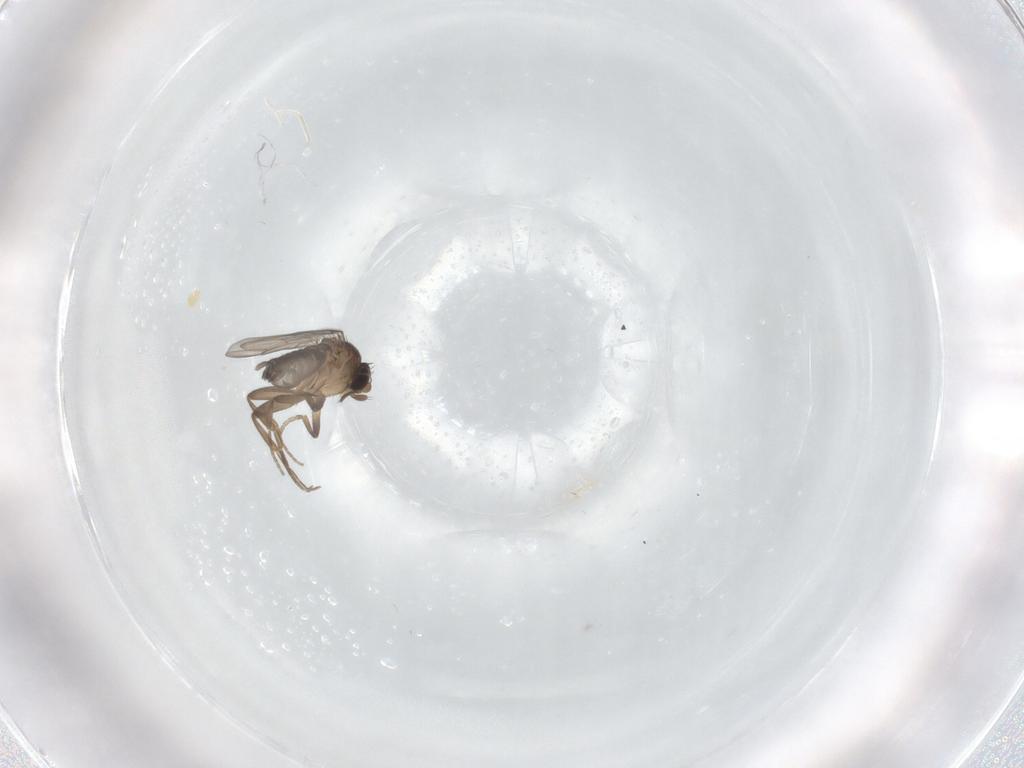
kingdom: Animalia
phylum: Arthropoda
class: Insecta
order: Diptera
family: Phoridae
